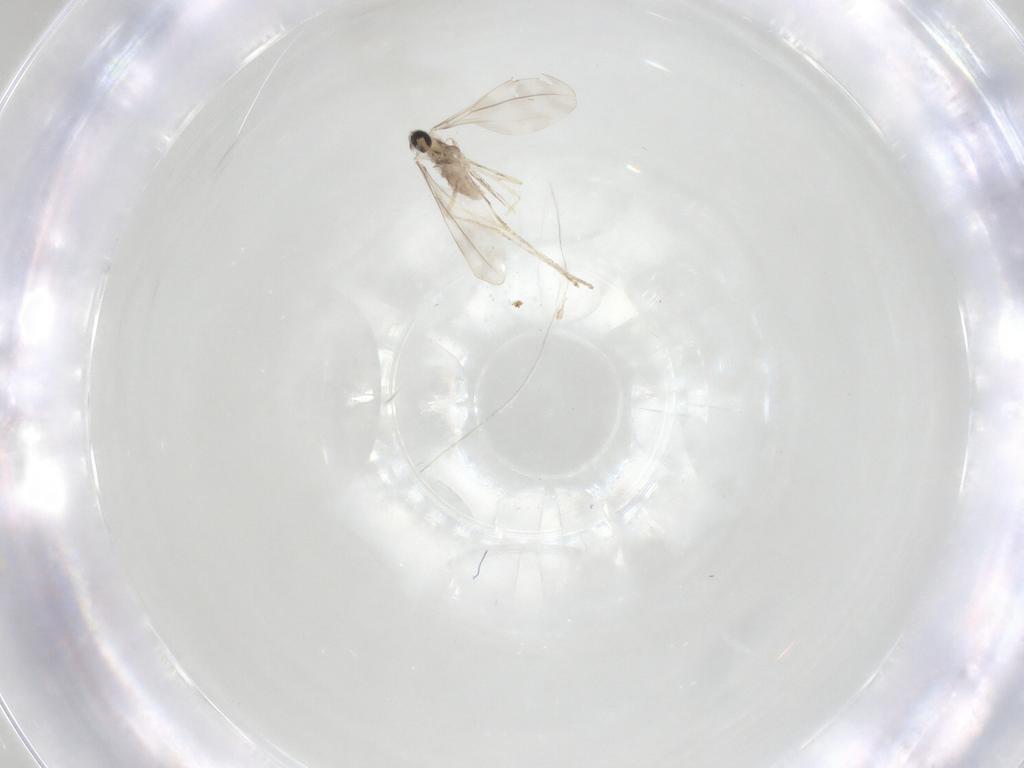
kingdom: Animalia
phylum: Arthropoda
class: Insecta
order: Diptera
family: Cecidomyiidae
